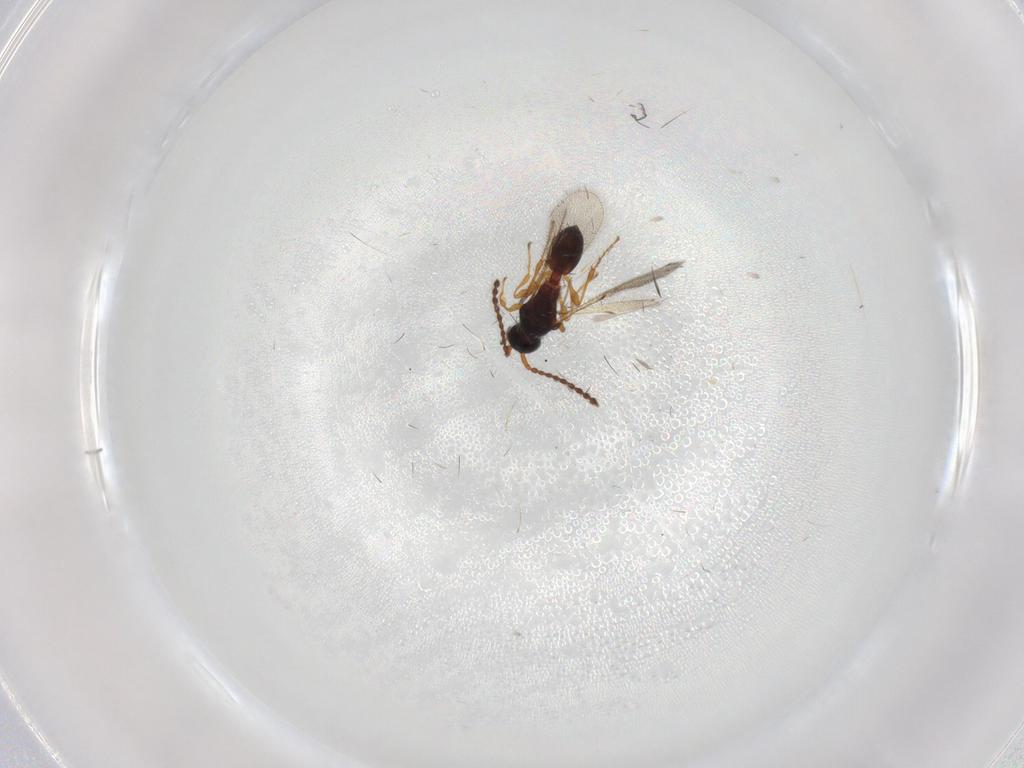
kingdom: Animalia
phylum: Arthropoda
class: Insecta
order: Hymenoptera
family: Diapriidae
